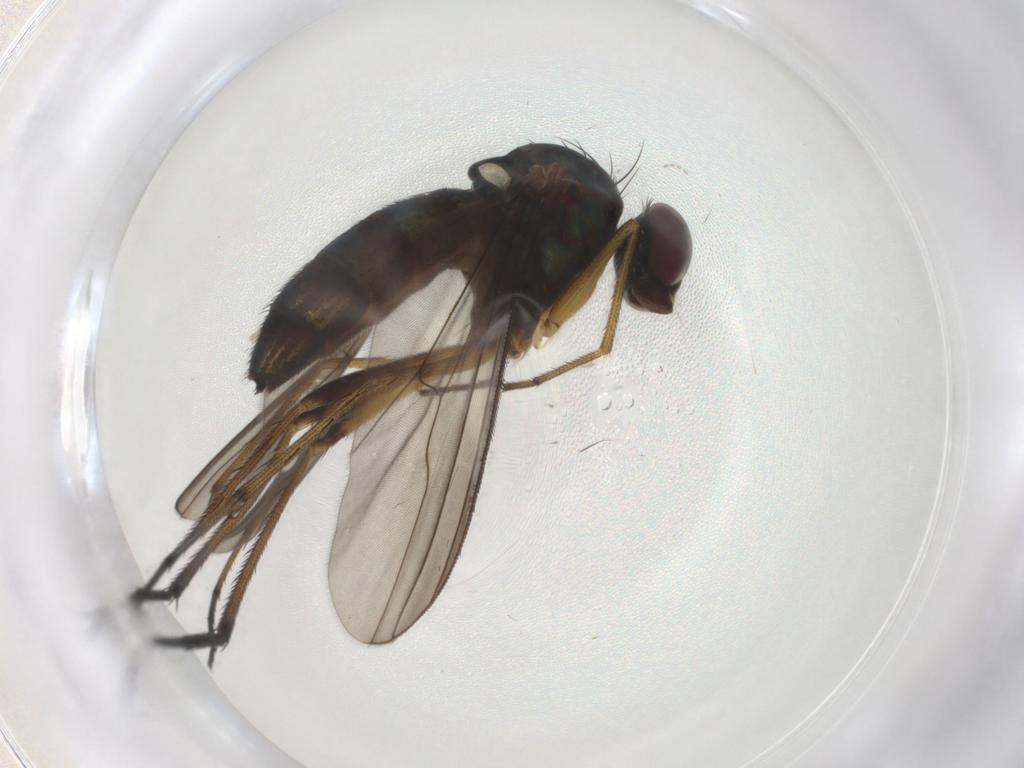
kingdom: Animalia
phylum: Arthropoda
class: Insecta
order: Diptera
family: Dolichopodidae
